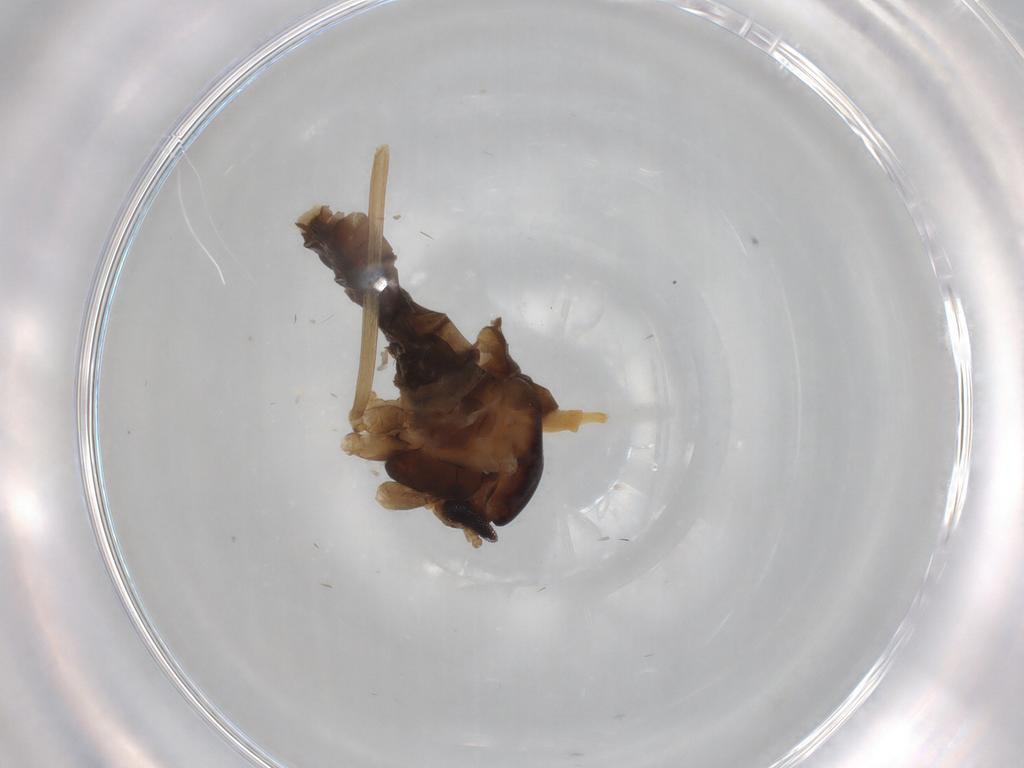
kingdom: Animalia
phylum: Arthropoda
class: Insecta
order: Diptera
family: Cecidomyiidae
